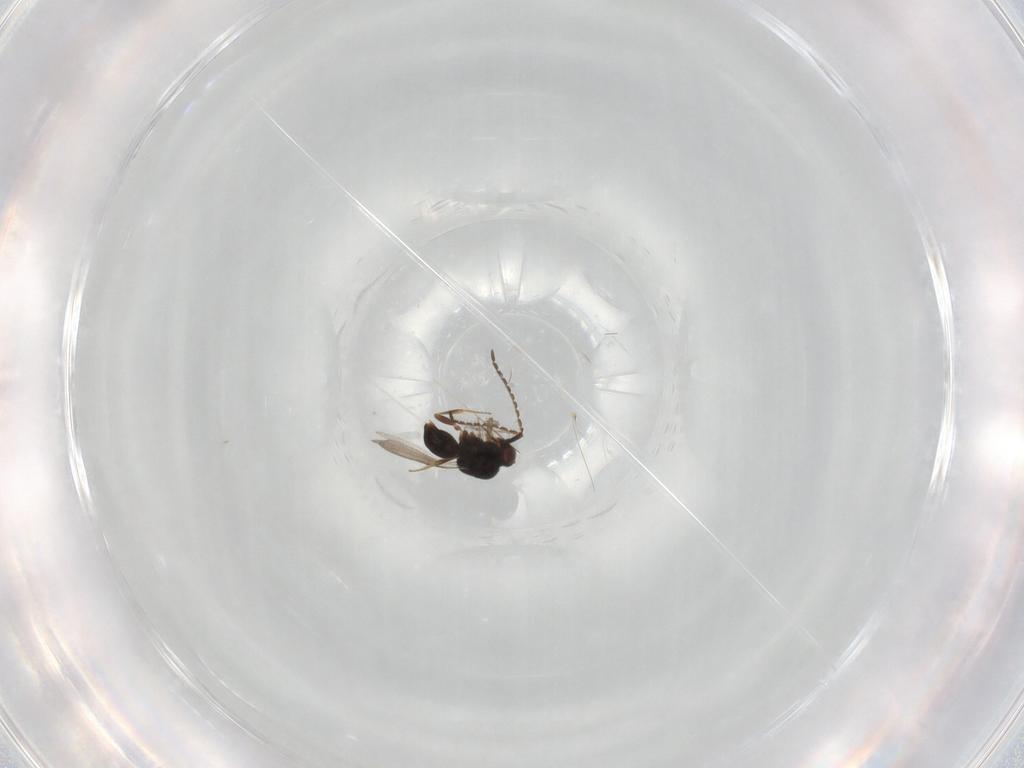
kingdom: Animalia
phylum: Arthropoda
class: Insecta
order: Hymenoptera
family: Ceraphronidae
